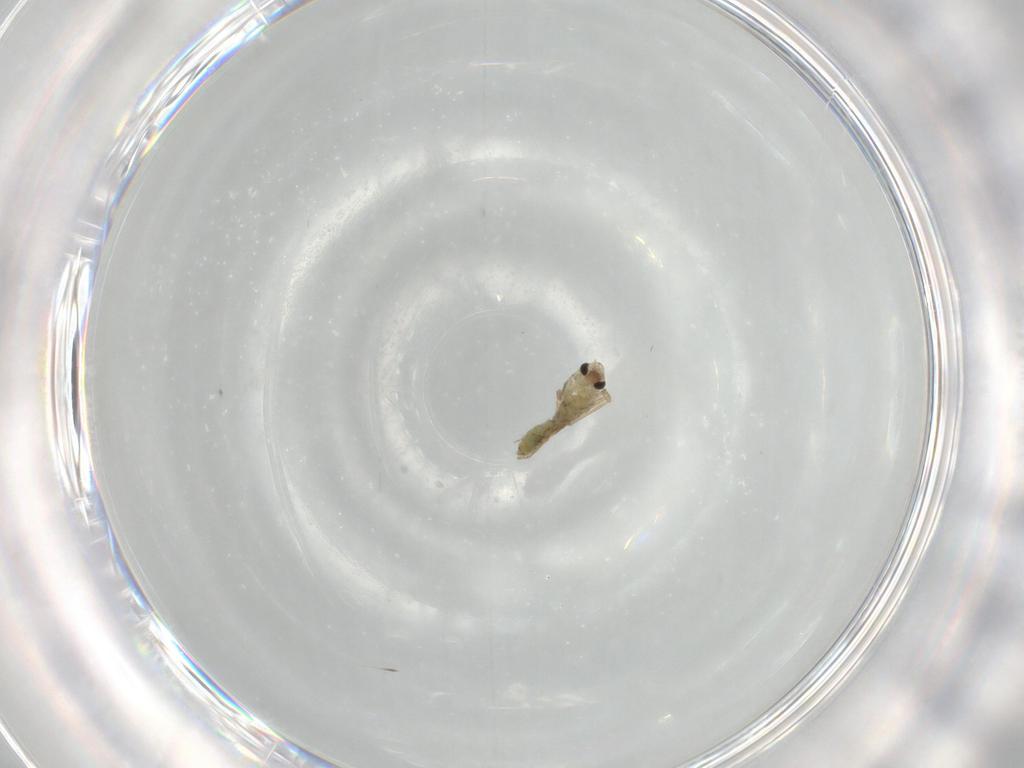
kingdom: Animalia
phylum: Arthropoda
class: Insecta
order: Diptera
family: Chironomidae
